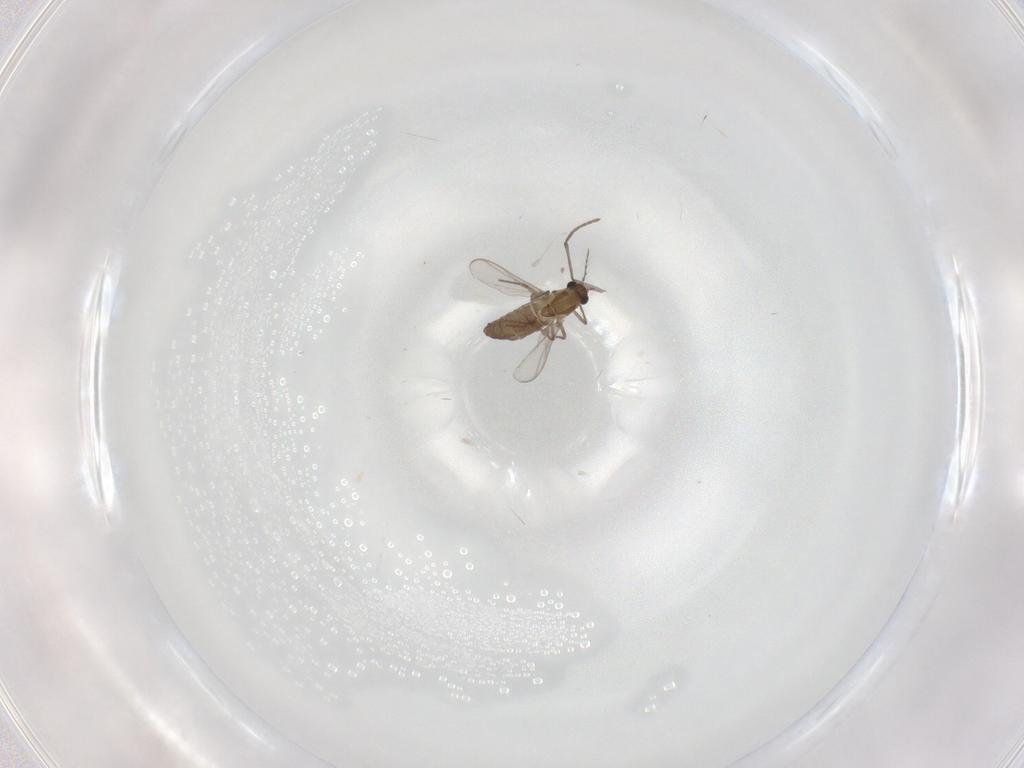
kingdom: Animalia
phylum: Arthropoda
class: Insecta
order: Diptera
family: Chironomidae
